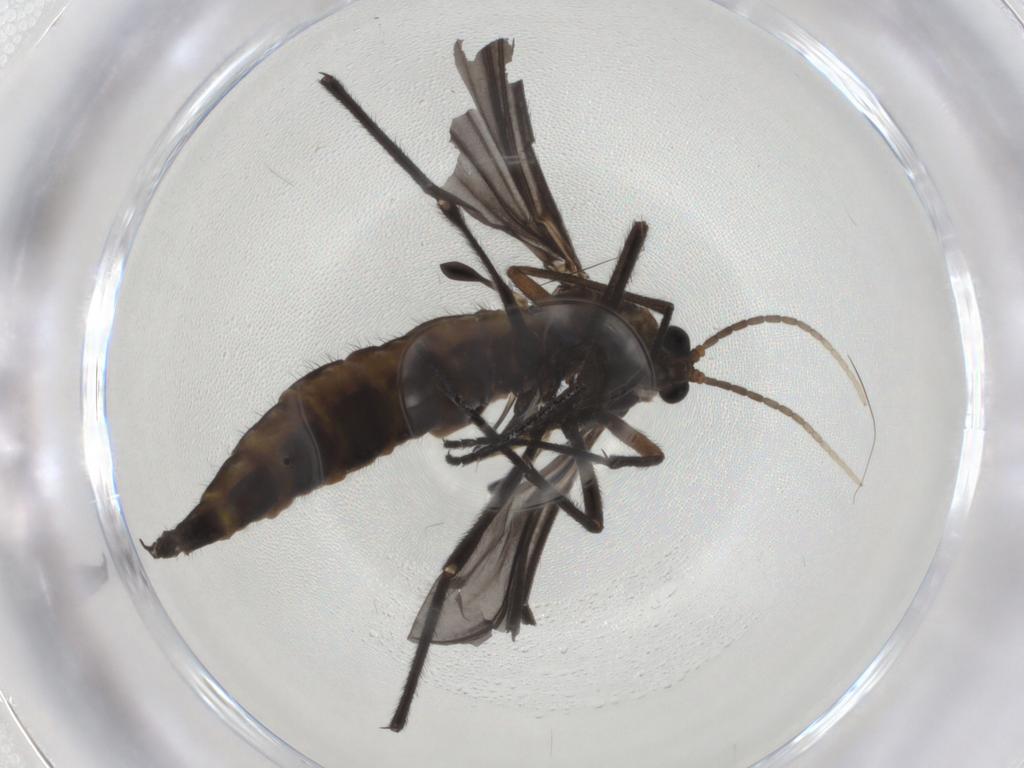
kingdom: Animalia
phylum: Arthropoda
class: Insecta
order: Diptera
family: Sciaridae
